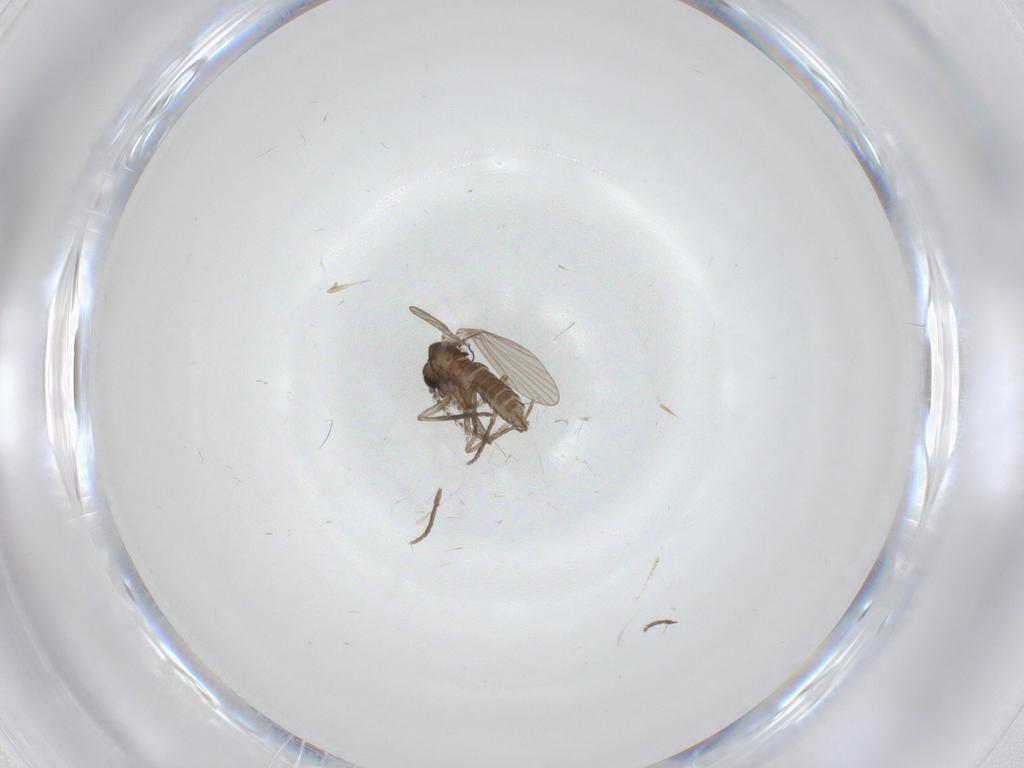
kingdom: Animalia
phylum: Arthropoda
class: Insecta
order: Diptera
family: Limoniidae
